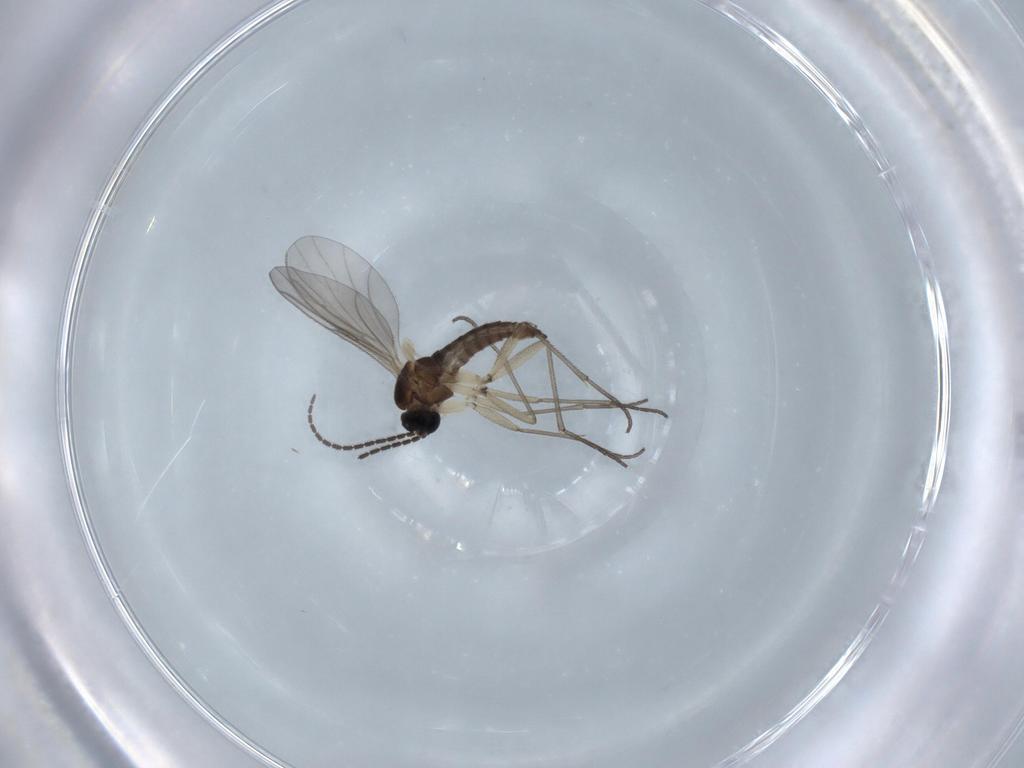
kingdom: Animalia
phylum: Arthropoda
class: Insecta
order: Diptera
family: Sciaridae
